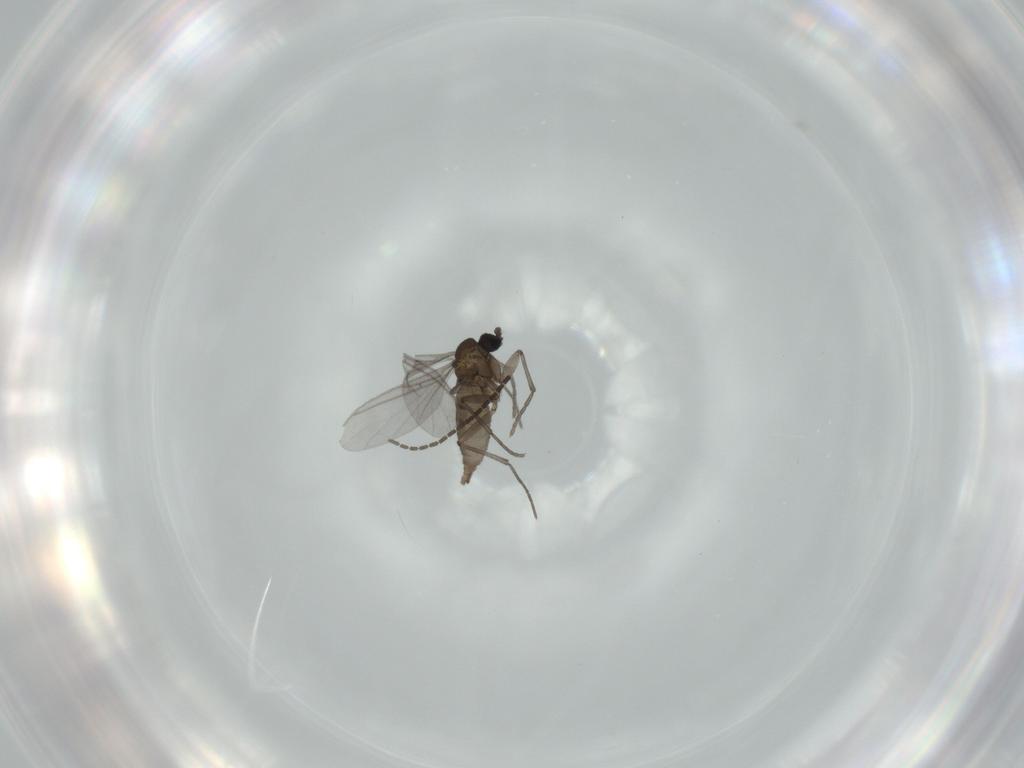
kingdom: Animalia
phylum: Arthropoda
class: Insecta
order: Diptera
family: Sciaridae
